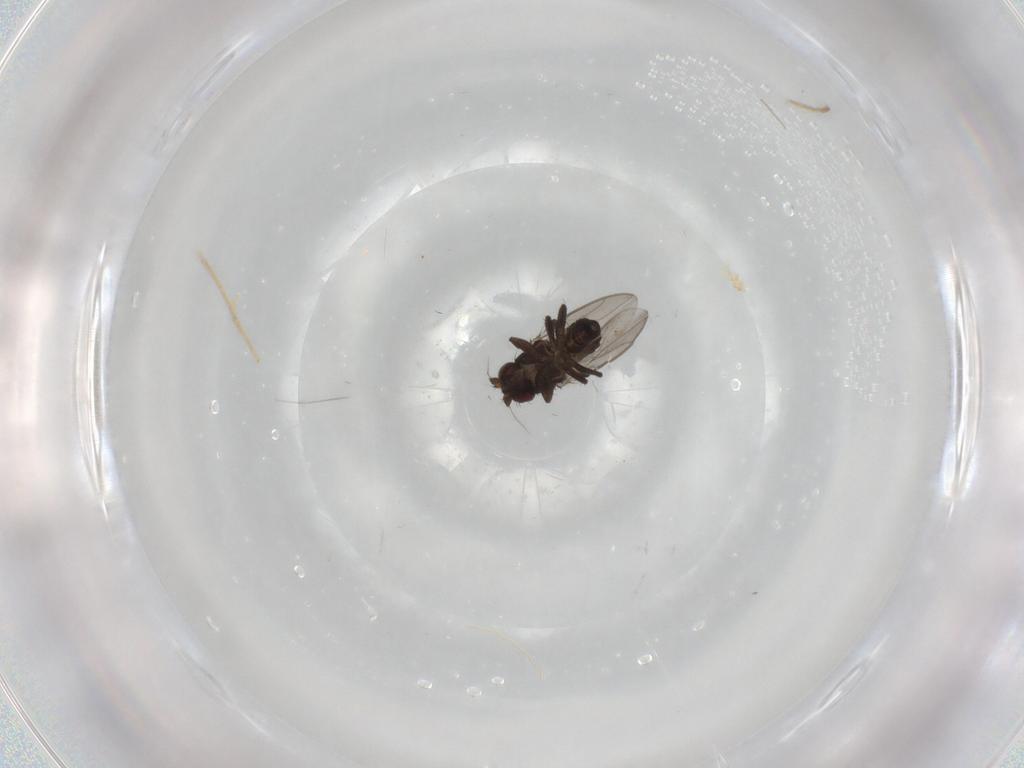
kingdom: Animalia
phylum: Arthropoda
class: Insecta
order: Diptera
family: Sphaeroceridae
